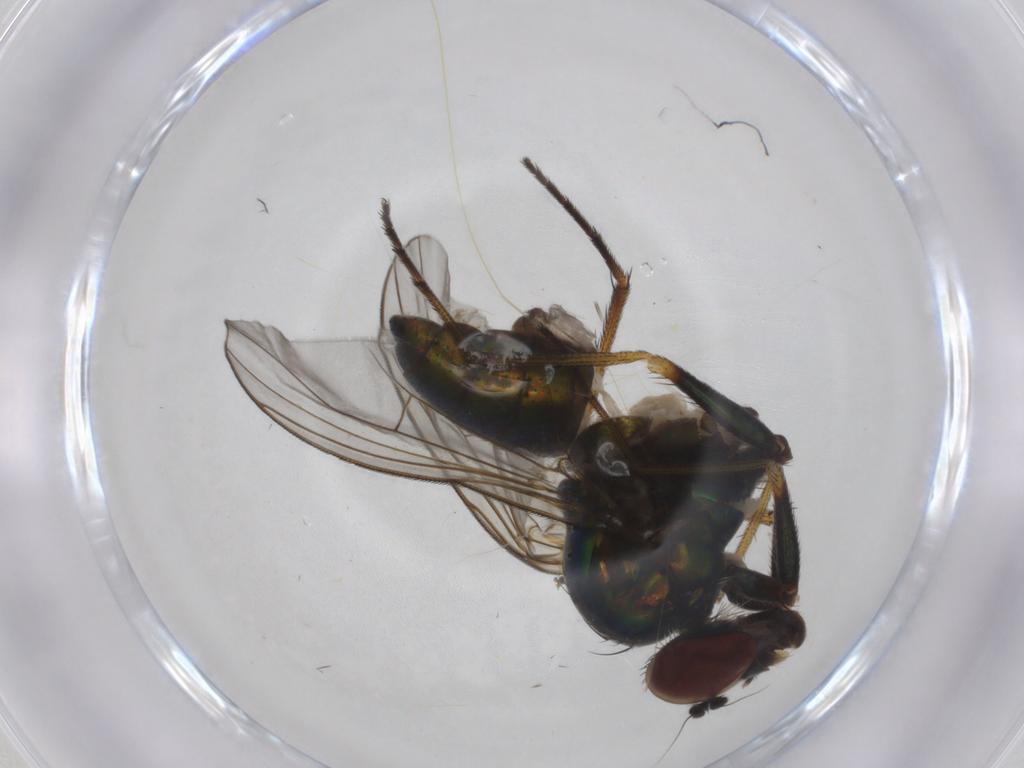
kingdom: Animalia
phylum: Arthropoda
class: Insecta
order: Diptera
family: Dolichopodidae
